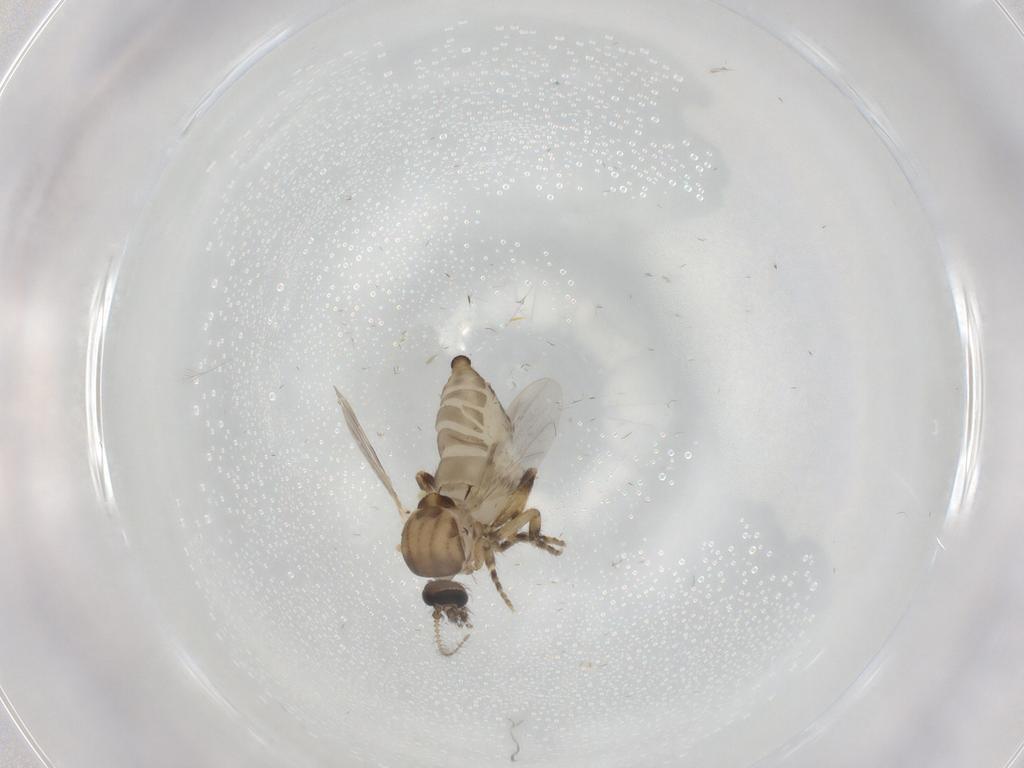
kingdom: Animalia
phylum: Arthropoda
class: Insecta
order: Diptera
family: Ceratopogonidae
